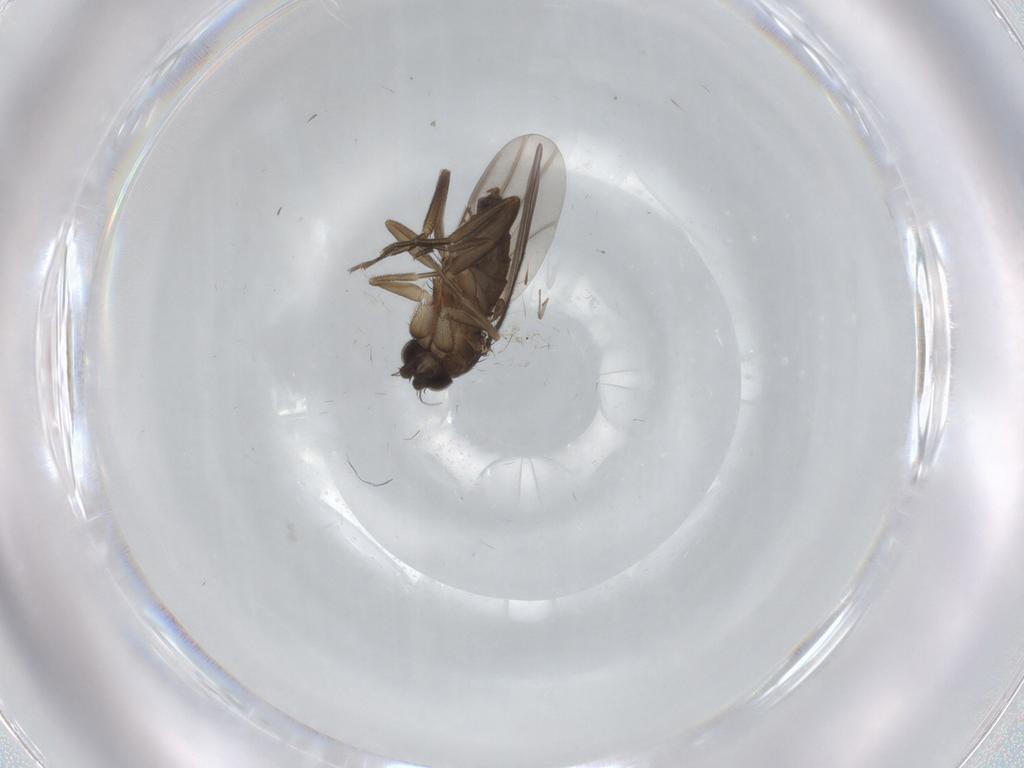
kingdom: Animalia
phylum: Arthropoda
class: Insecta
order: Diptera
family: Phoridae
